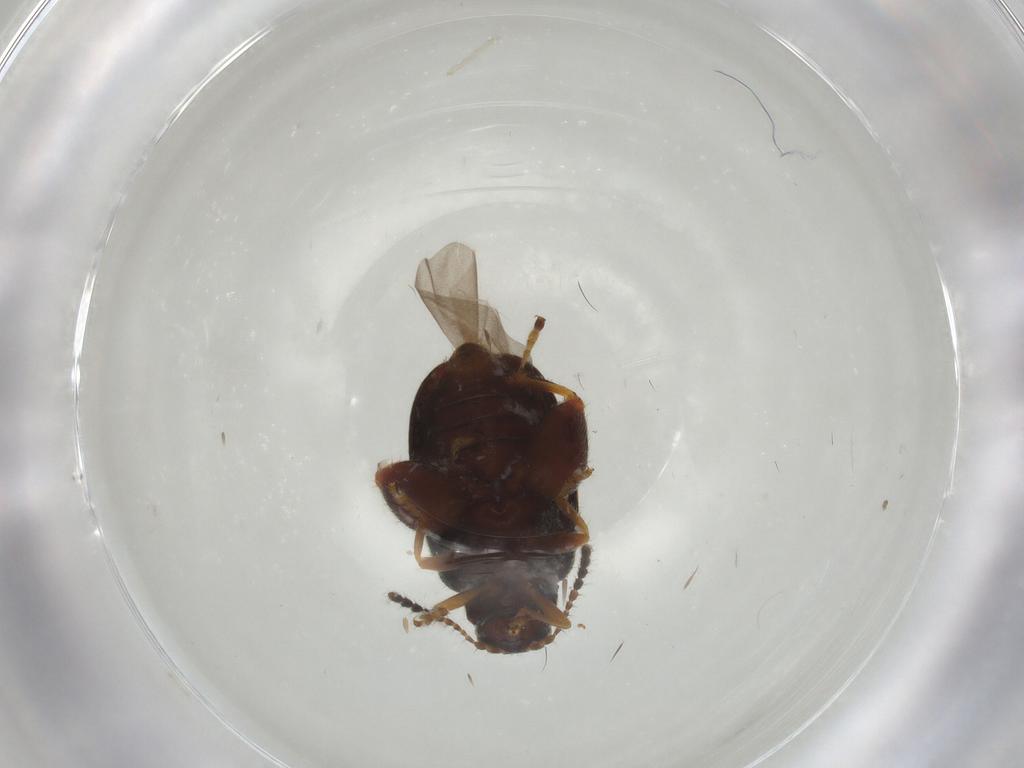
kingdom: Animalia
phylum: Arthropoda
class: Insecta
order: Coleoptera
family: Chrysomelidae
